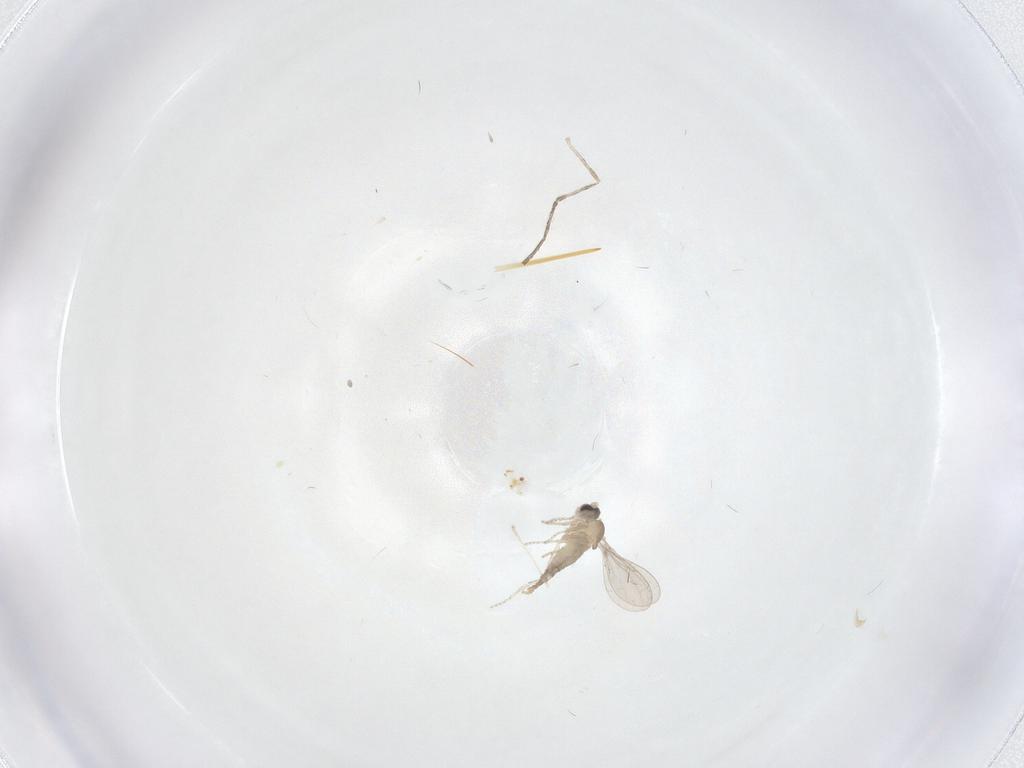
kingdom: Animalia
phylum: Arthropoda
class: Insecta
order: Diptera
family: Cecidomyiidae
